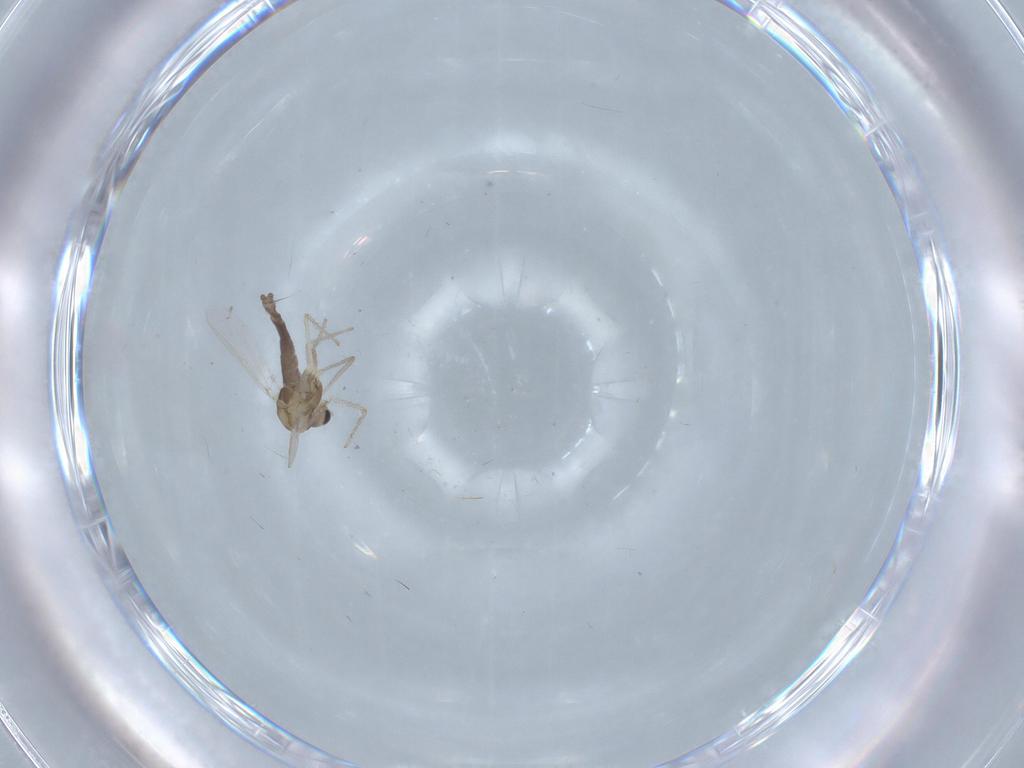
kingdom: Animalia
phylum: Arthropoda
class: Insecta
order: Diptera
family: Chironomidae
